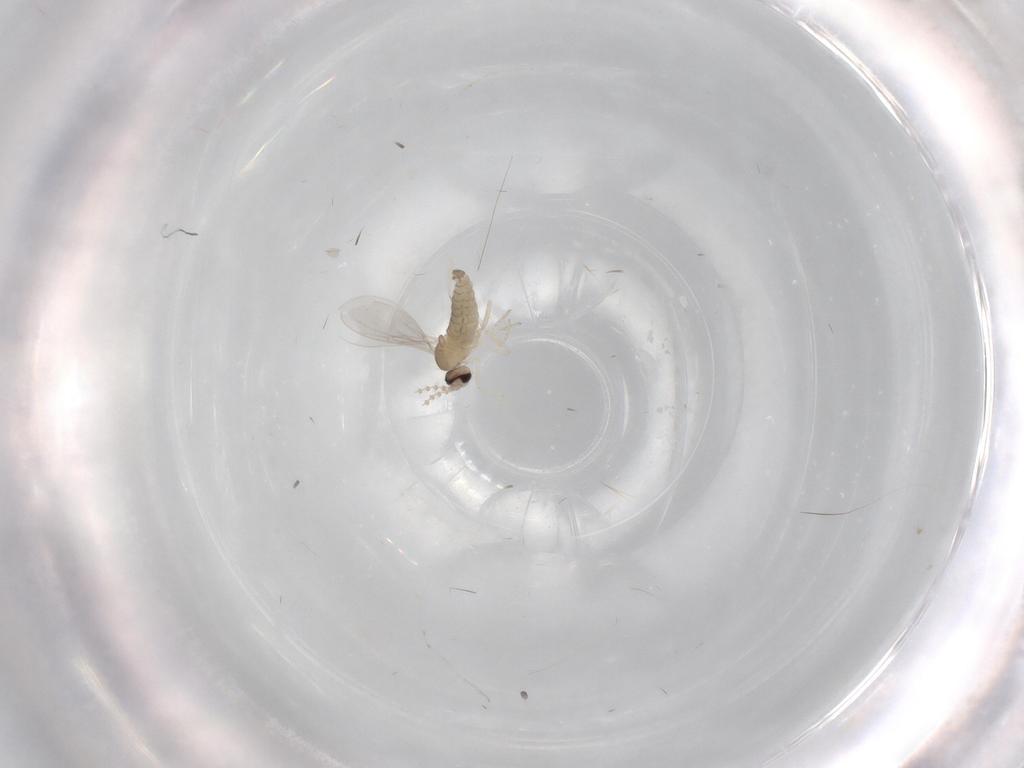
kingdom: Animalia
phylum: Arthropoda
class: Insecta
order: Diptera
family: Cecidomyiidae
